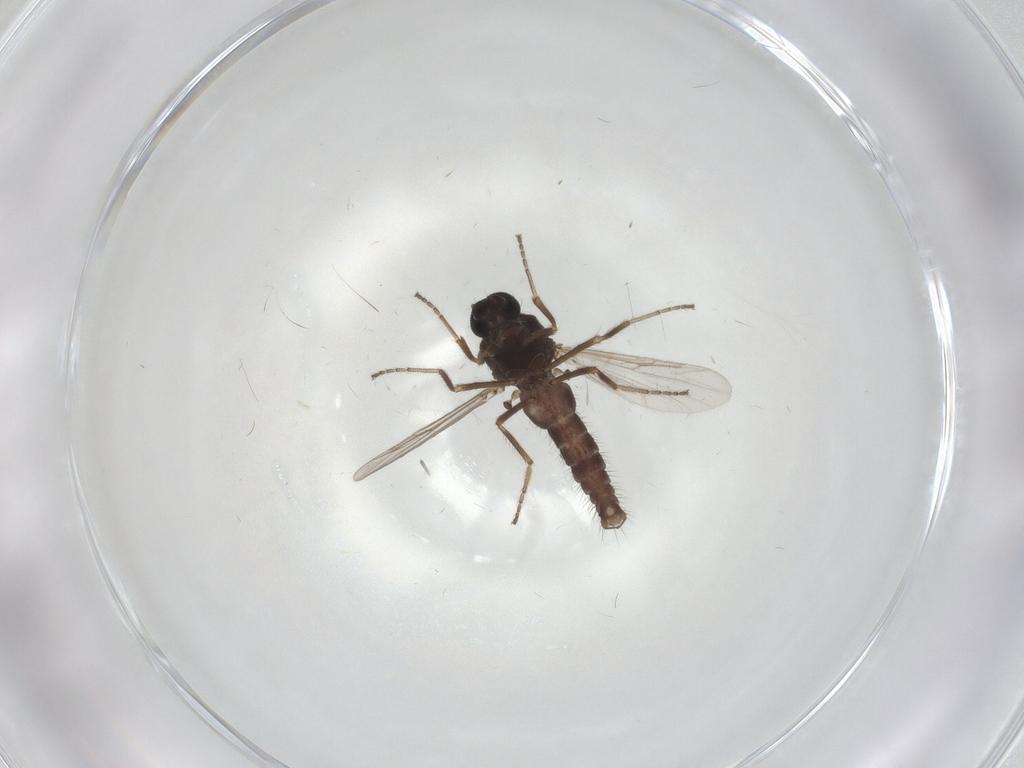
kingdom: Animalia
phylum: Arthropoda
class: Insecta
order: Diptera
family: Ceratopogonidae
